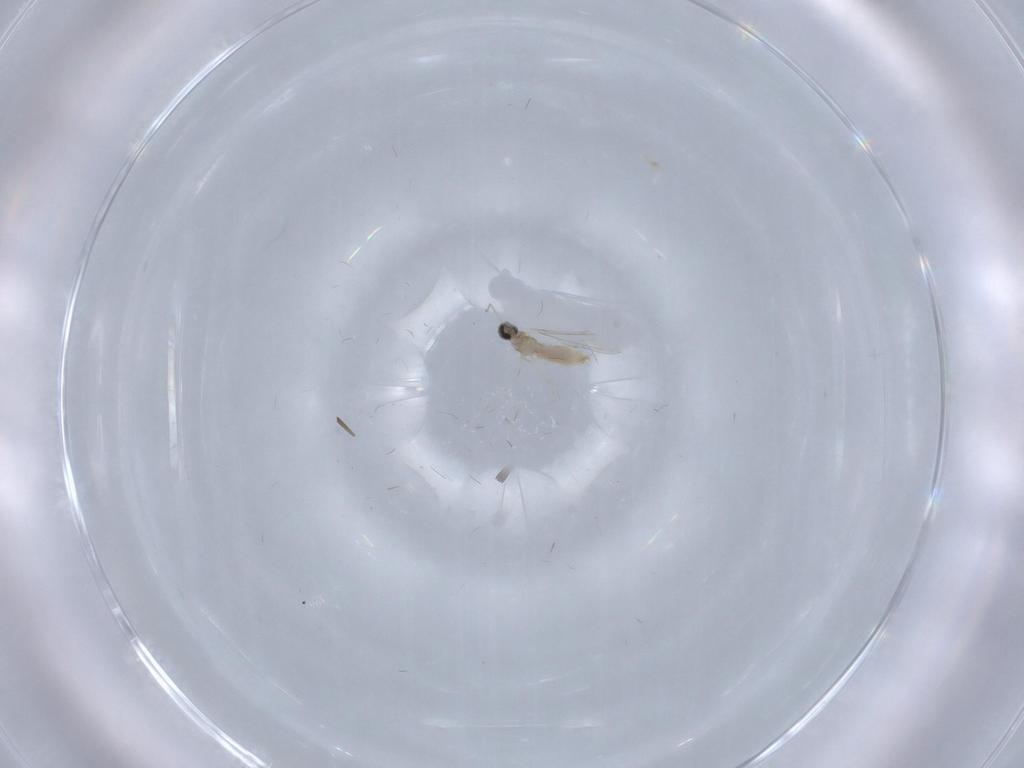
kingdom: Animalia
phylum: Arthropoda
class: Insecta
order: Diptera
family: Cecidomyiidae
